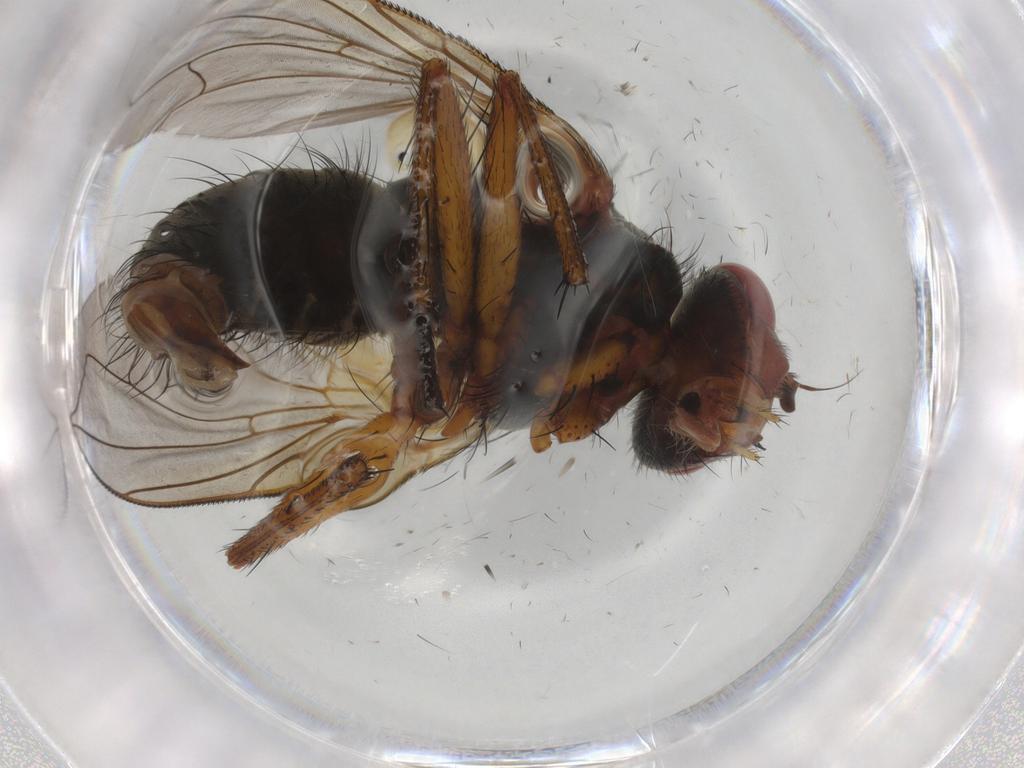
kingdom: Animalia
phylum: Arthropoda
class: Insecta
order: Diptera
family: Tachinidae
